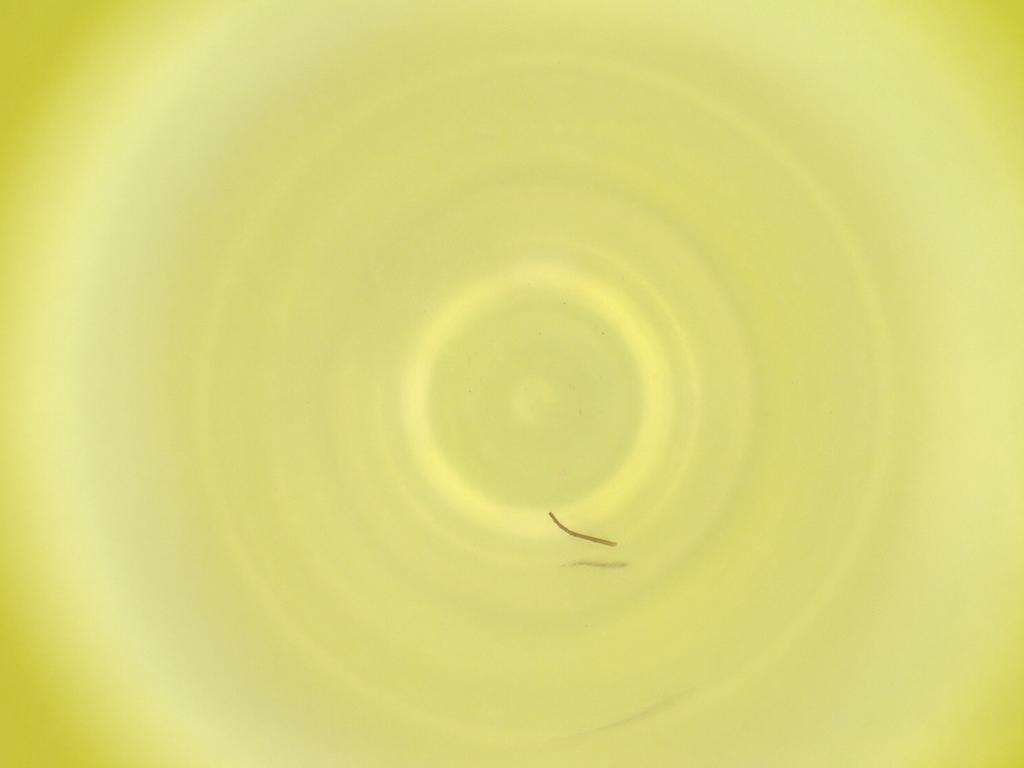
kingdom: Animalia
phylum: Arthropoda
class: Insecta
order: Diptera
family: Cecidomyiidae
